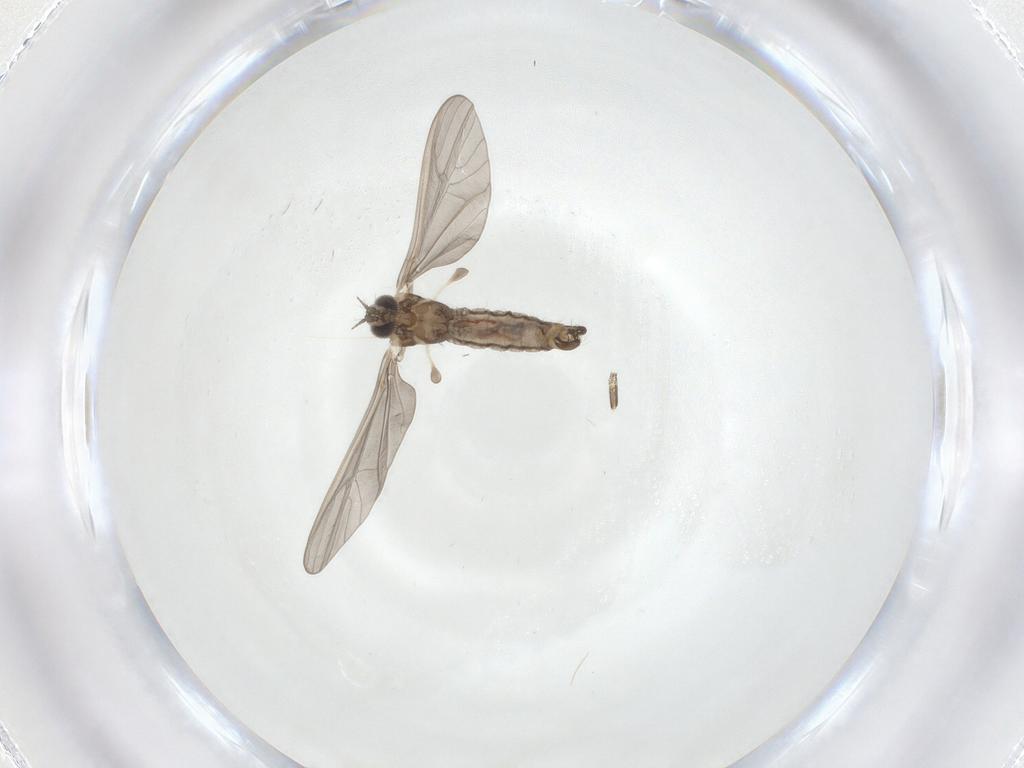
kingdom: Animalia
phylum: Arthropoda
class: Insecta
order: Diptera
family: Limoniidae
